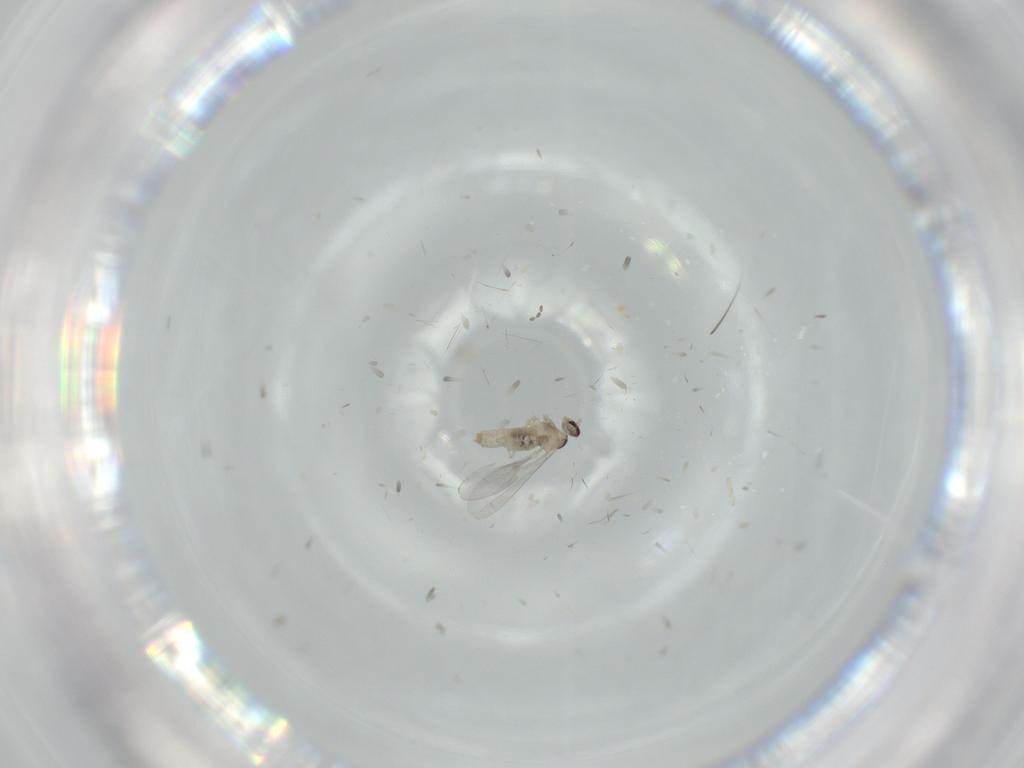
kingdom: Animalia
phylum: Arthropoda
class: Insecta
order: Diptera
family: Cecidomyiidae
